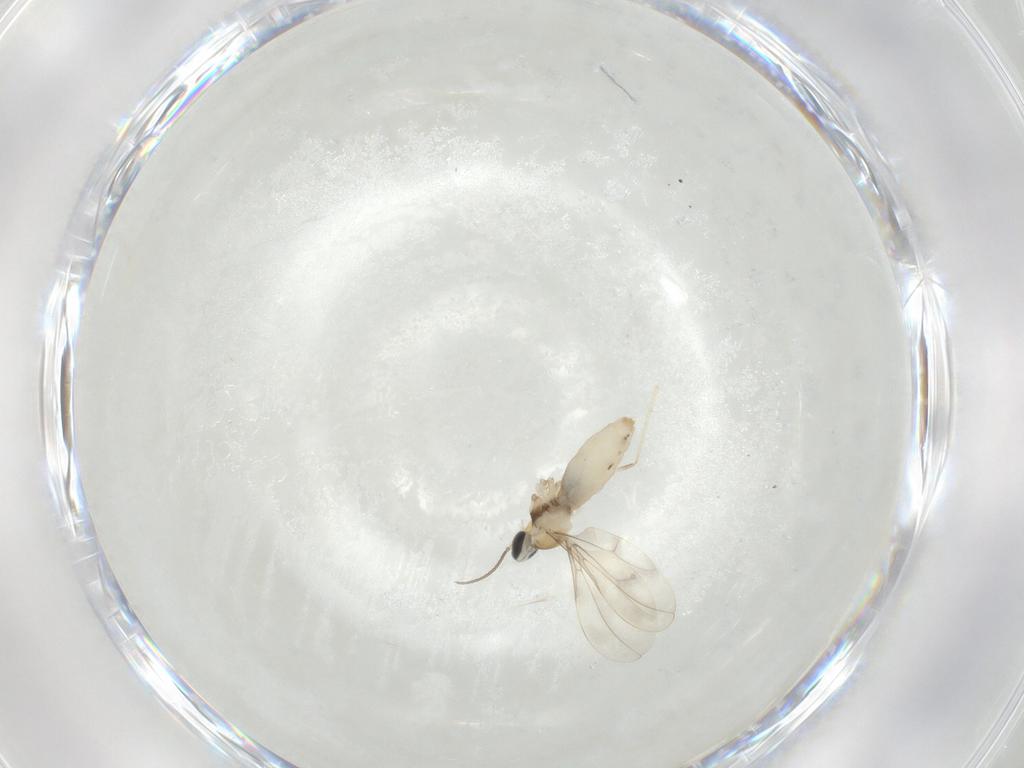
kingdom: Animalia
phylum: Arthropoda
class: Insecta
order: Diptera
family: Cecidomyiidae
